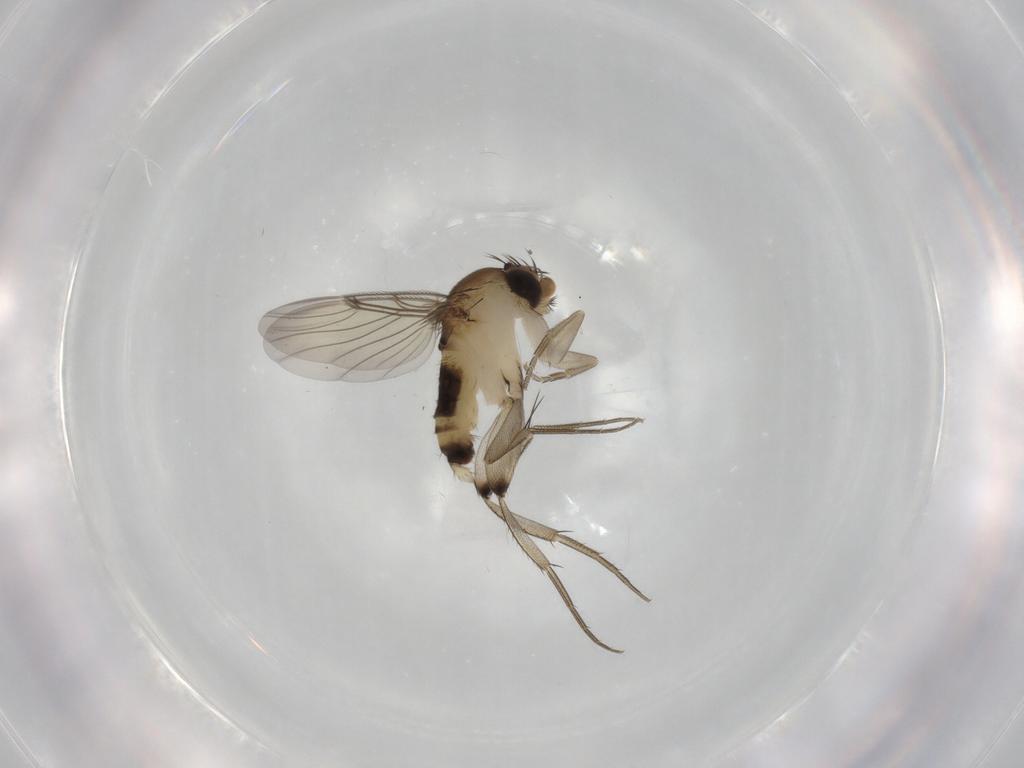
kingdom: Animalia
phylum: Arthropoda
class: Insecta
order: Diptera
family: Phoridae
